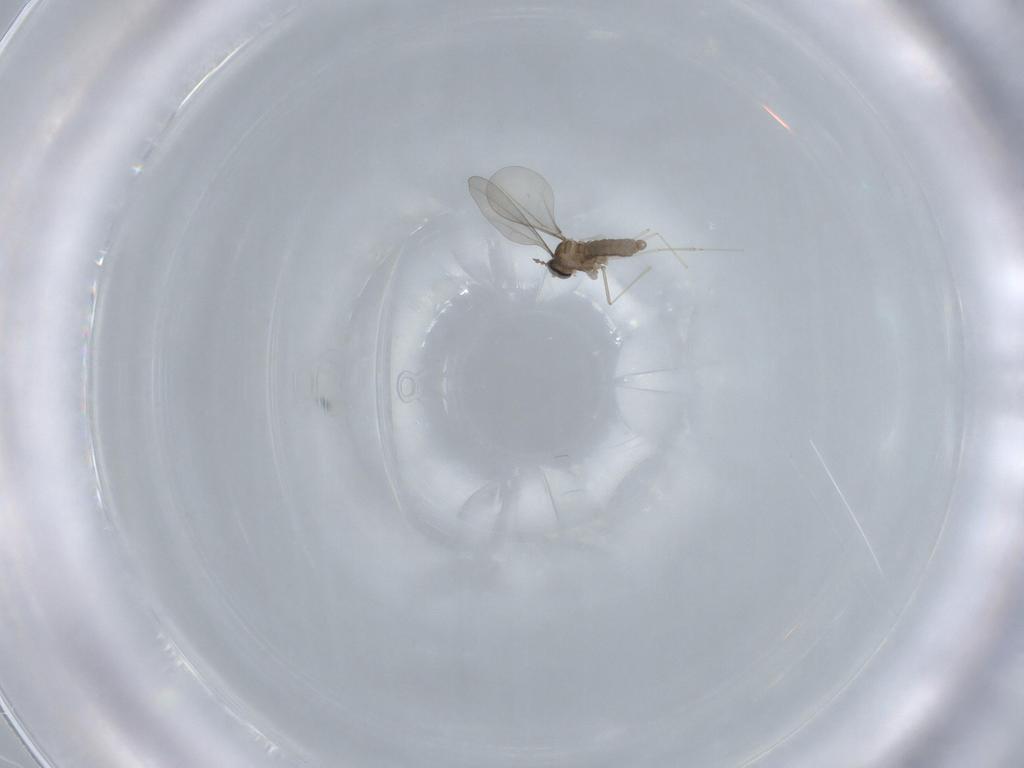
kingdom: Animalia
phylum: Arthropoda
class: Insecta
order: Diptera
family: Cecidomyiidae
